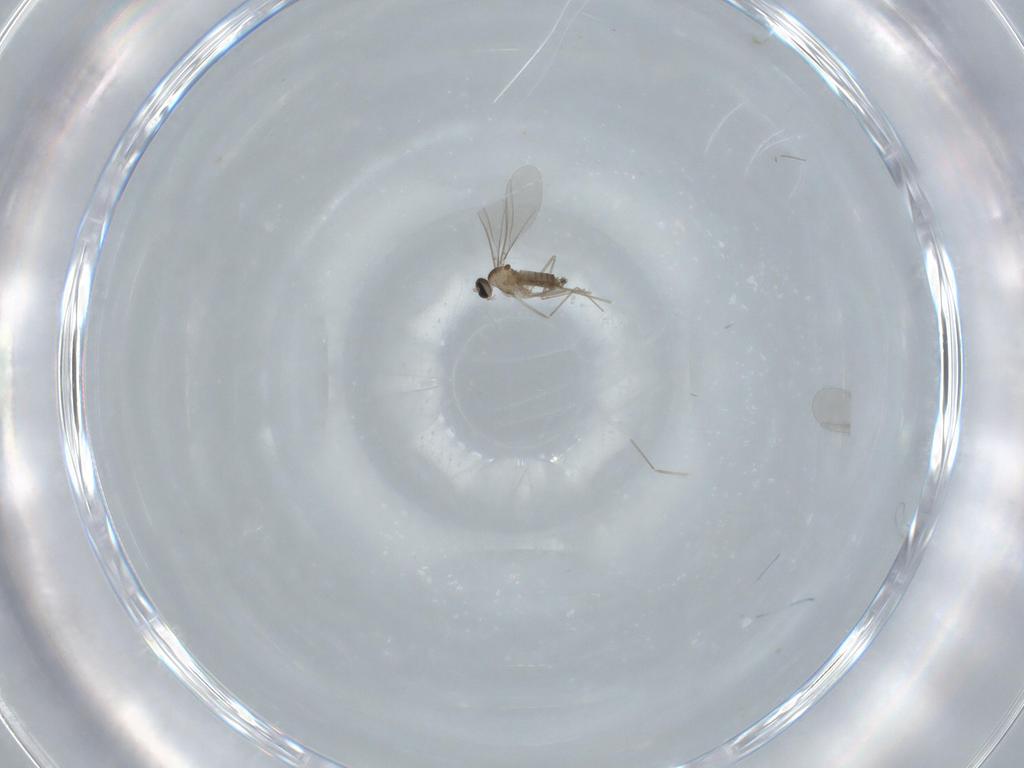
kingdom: Animalia
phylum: Arthropoda
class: Insecta
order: Diptera
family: Cecidomyiidae
